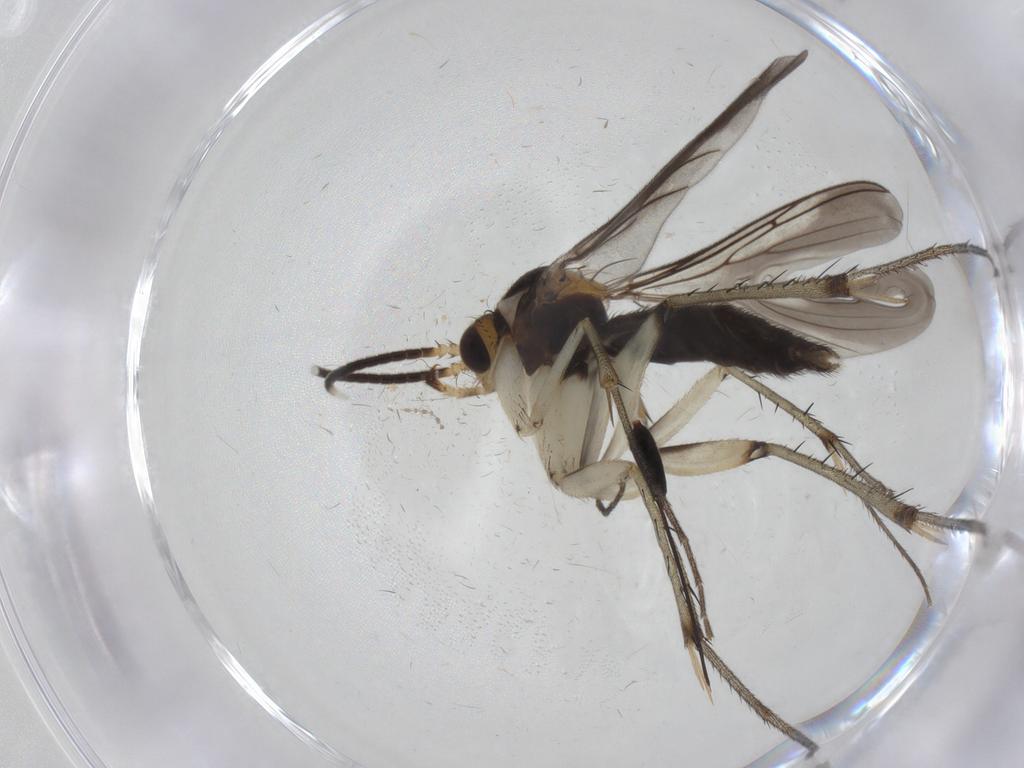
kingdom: Animalia
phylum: Arthropoda
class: Insecta
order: Diptera
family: Mycetophilidae
